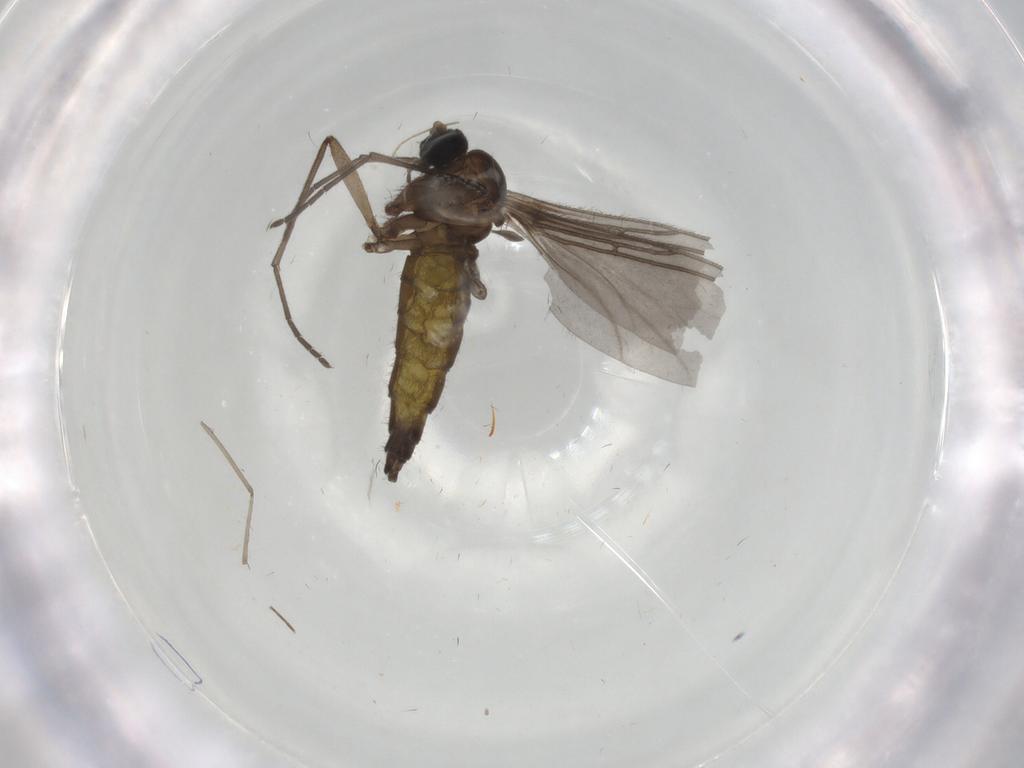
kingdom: Animalia
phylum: Arthropoda
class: Insecta
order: Diptera
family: Sciaridae
